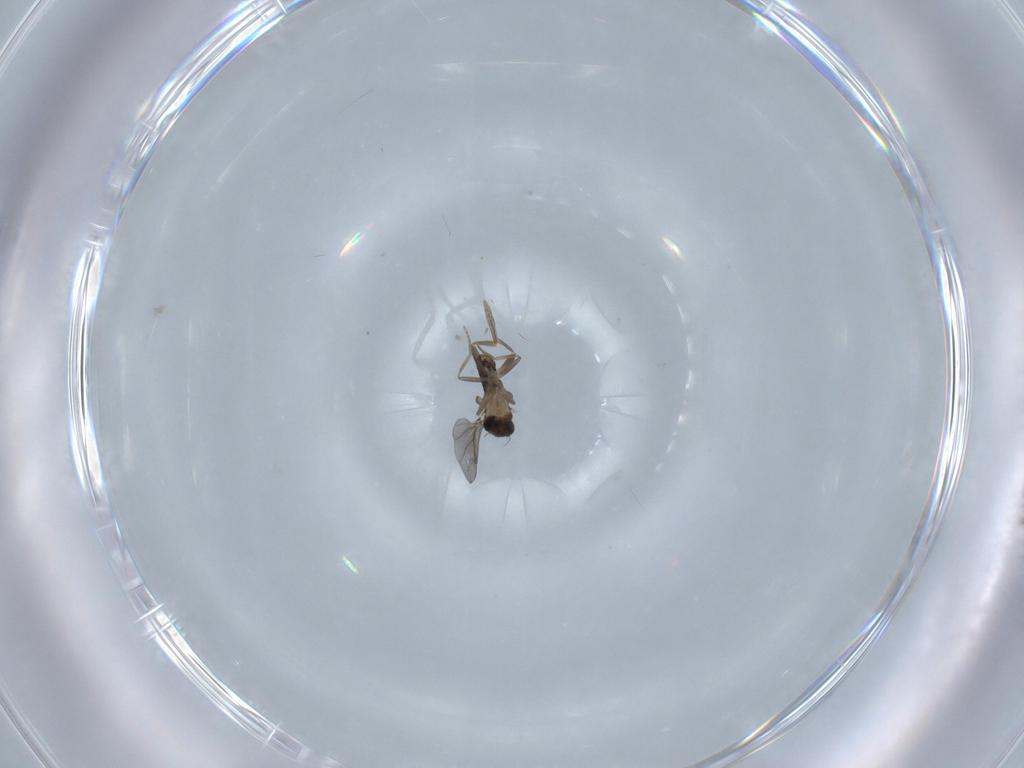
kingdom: Animalia
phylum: Arthropoda
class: Insecta
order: Diptera
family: Cecidomyiidae
